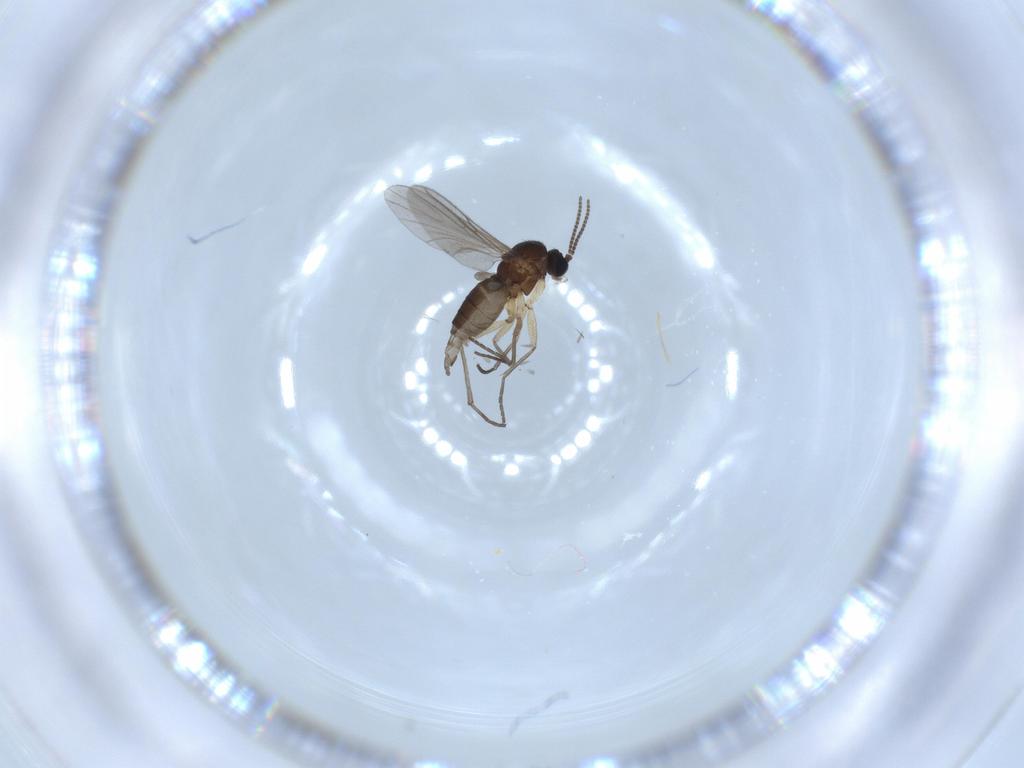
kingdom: Animalia
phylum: Arthropoda
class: Insecta
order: Diptera
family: Sciaridae
